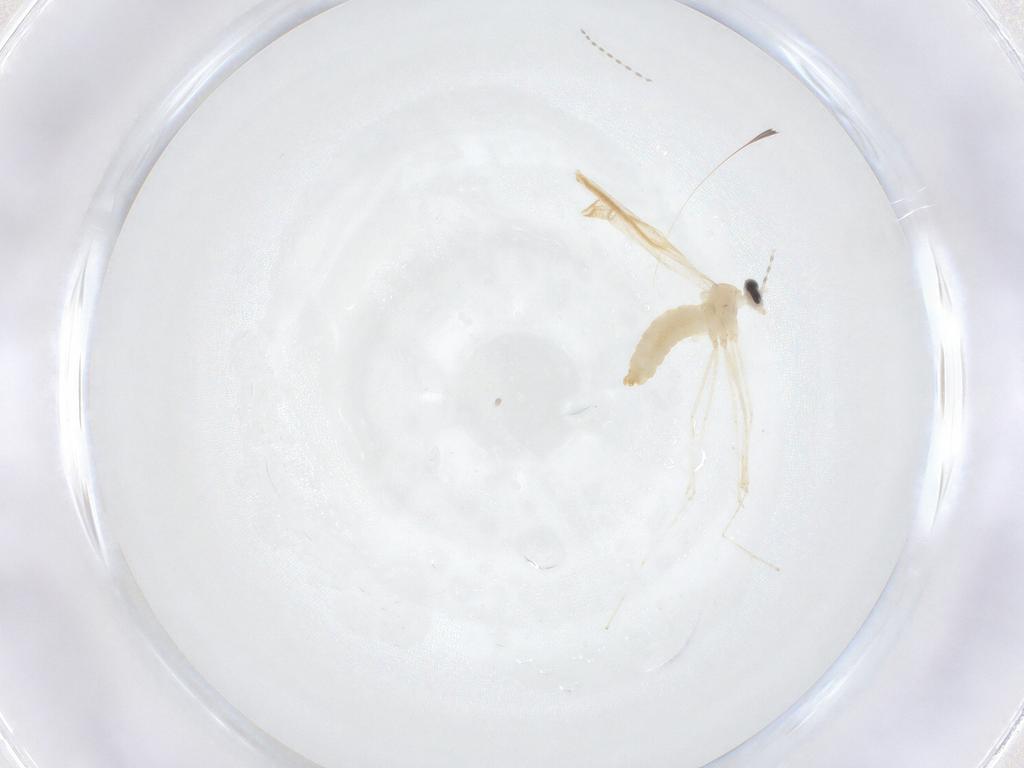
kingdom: Animalia
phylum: Arthropoda
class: Insecta
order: Diptera
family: Cecidomyiidae
